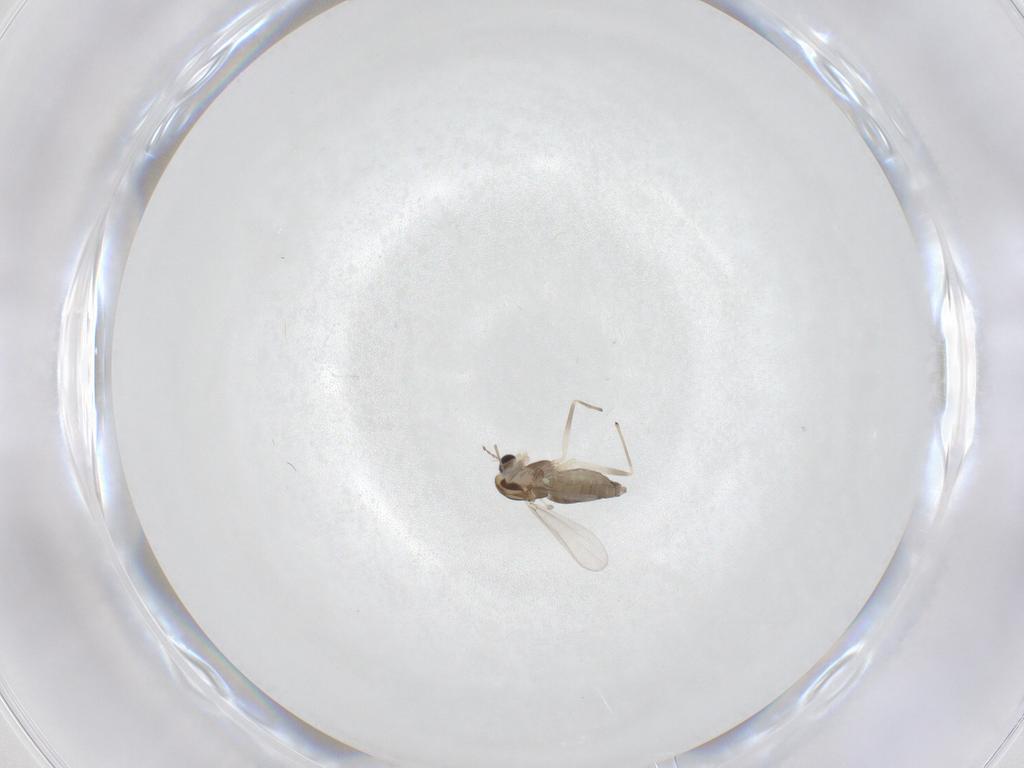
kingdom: Animalia
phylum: Arthropoda
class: Insecta
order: Diptera
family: Chironomidae
